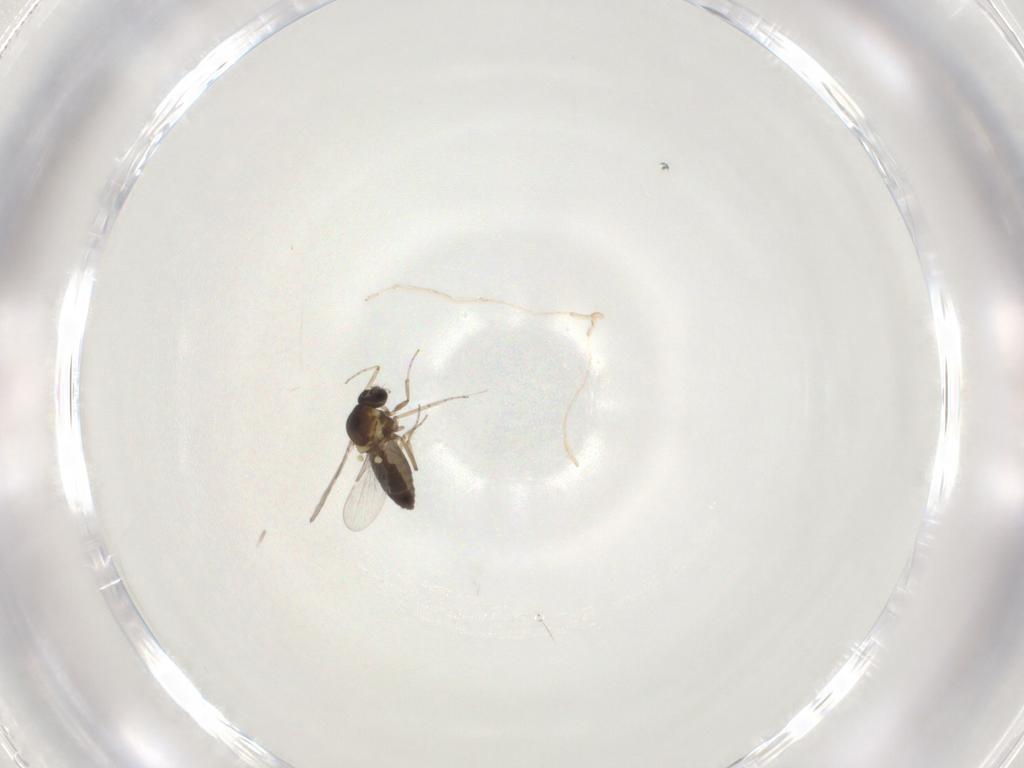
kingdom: Animalia
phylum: Arthropoda
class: Insecta
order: Diptera
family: Ceratopogonidae
